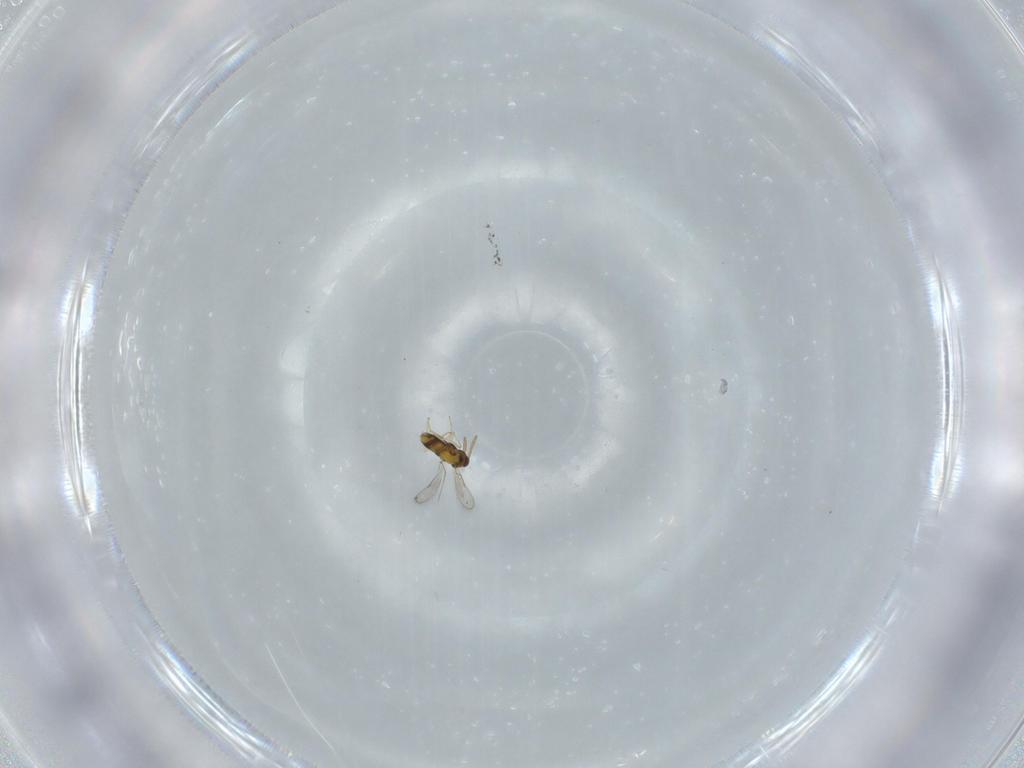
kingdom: Animalia
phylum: Arthropoda
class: Insecta
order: Hymenoptera
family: Aphelinidae
